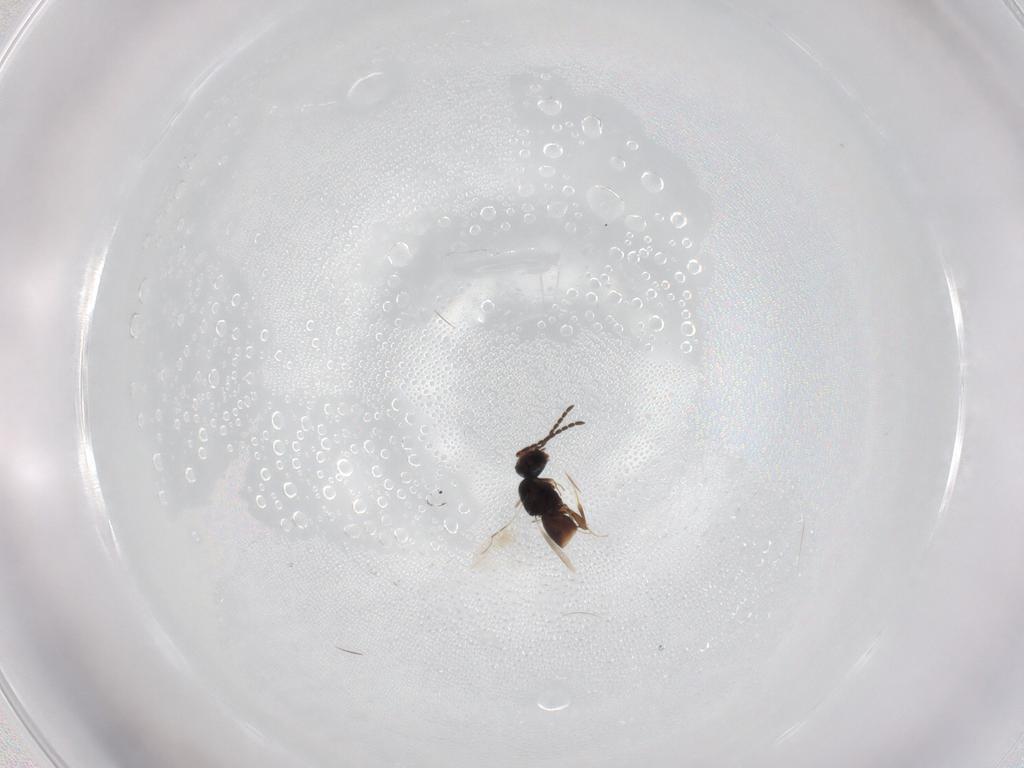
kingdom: Animalia
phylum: Arthropoda
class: Insecta
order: Hymenoptera
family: Eulophidae
